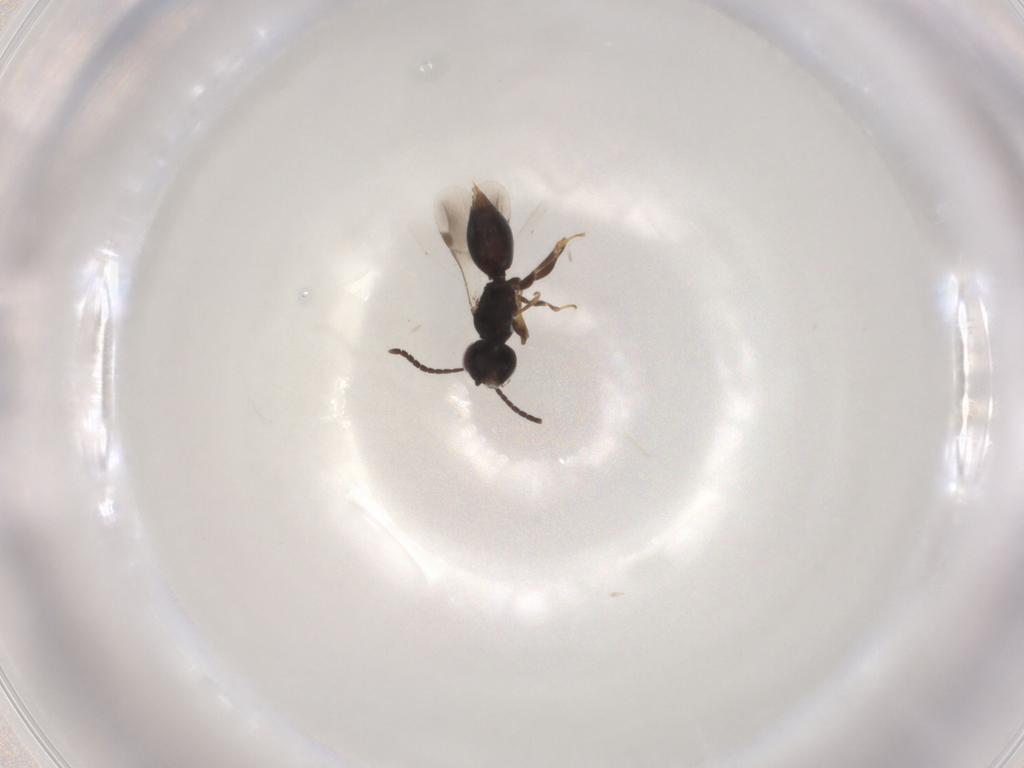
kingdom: Animalia
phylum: Arthropoda
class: Insecta
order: Hymenoptera
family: Megaspilidae
